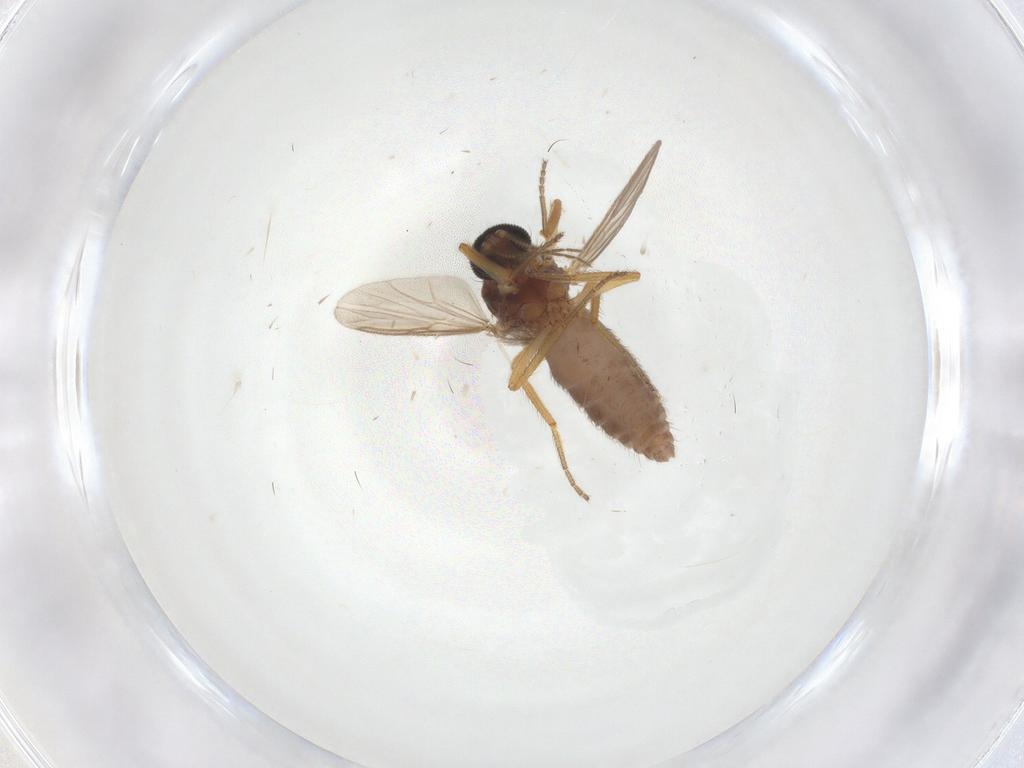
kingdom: Animalia
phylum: Arthropoda
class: Insecta
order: Diptera
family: Ceratopogonidae
